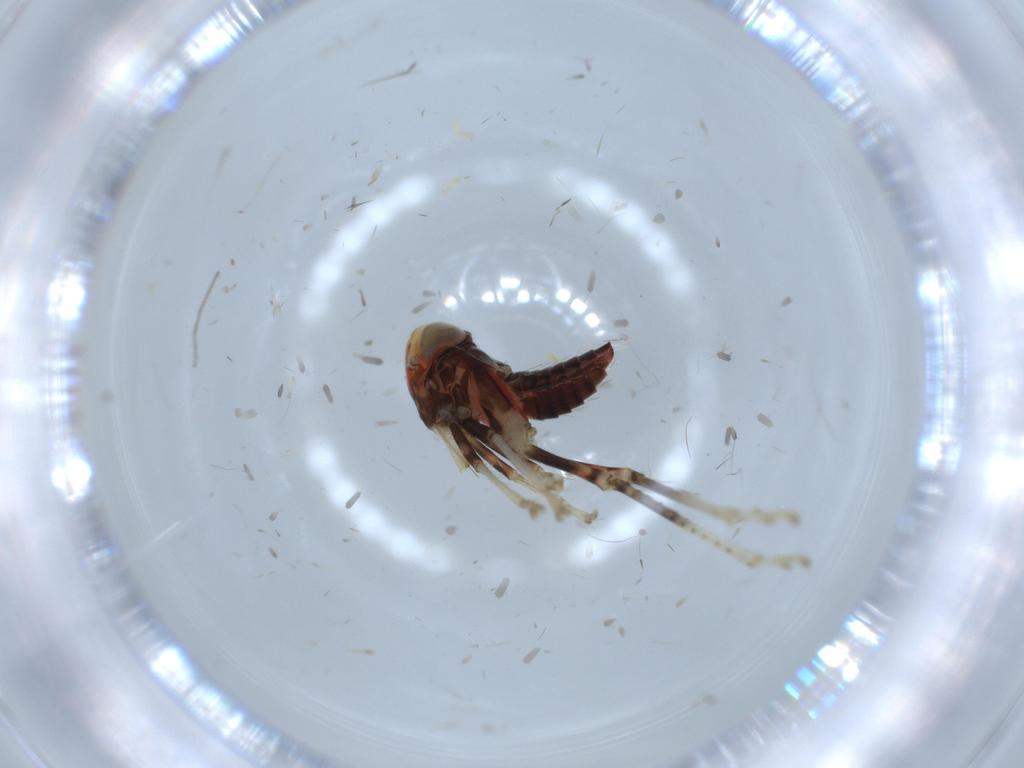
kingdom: Animalia
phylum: Arthropoda
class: Insecta
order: Hemiptera
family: Cicadellidae
